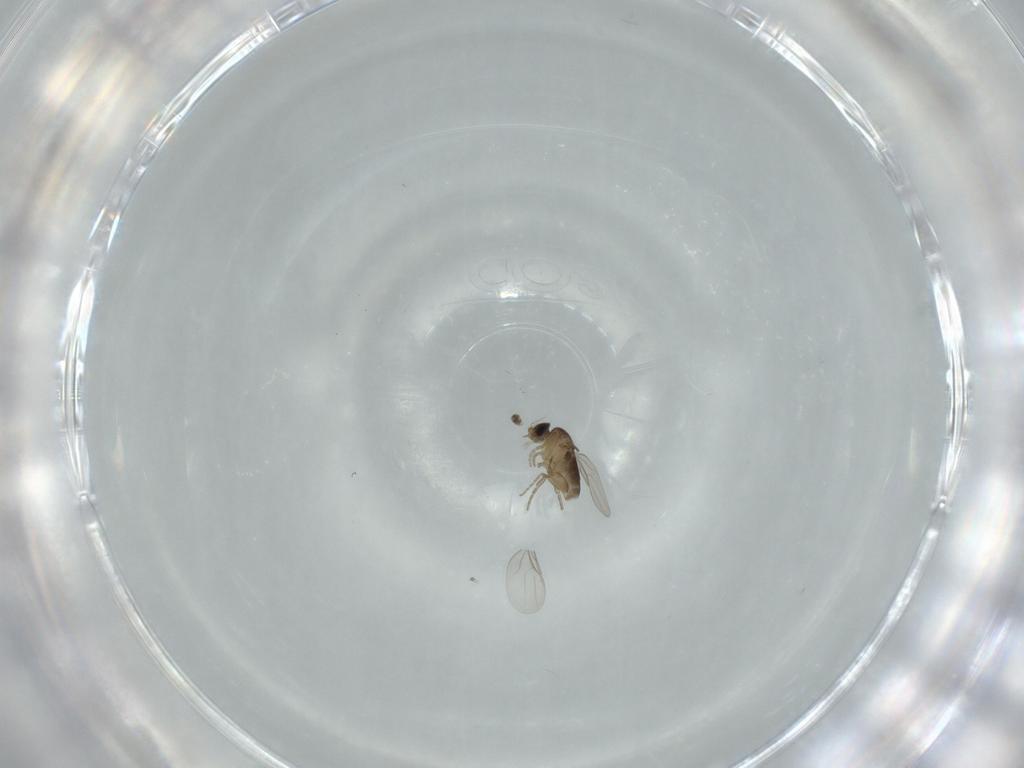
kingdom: Animalia
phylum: Arthropoda
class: Insecta
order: Diptera
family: Phoridae
